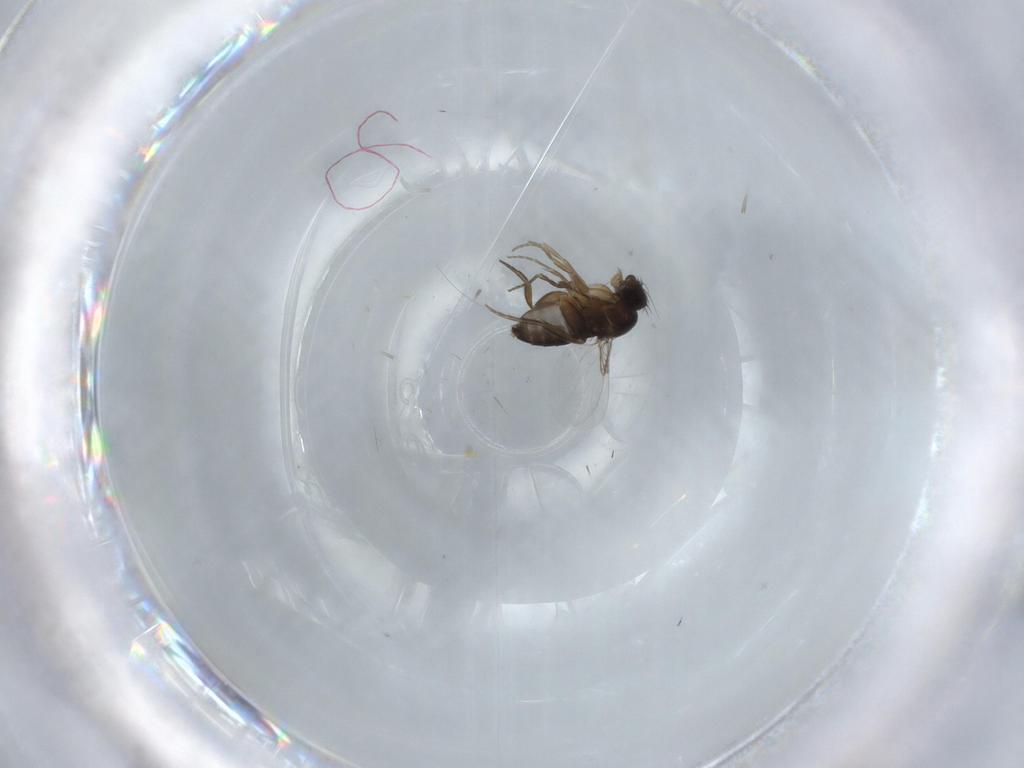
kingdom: Animalia
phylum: Arthropoda
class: Insecta
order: Diptera
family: Phoridae
